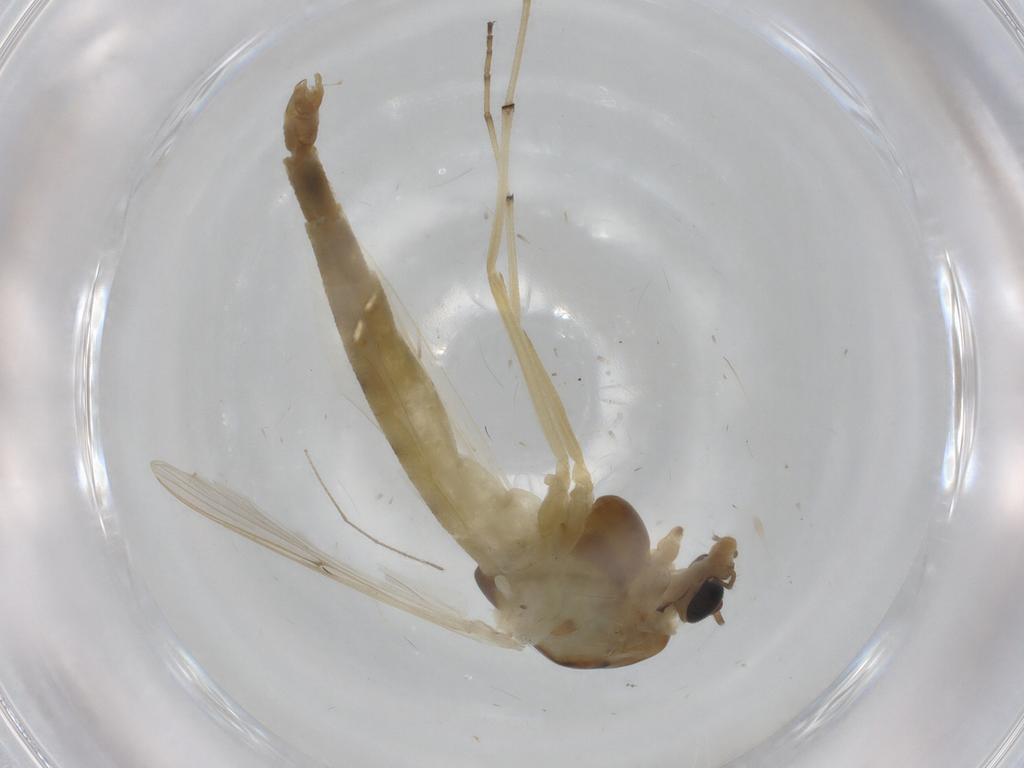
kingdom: Animalia
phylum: Arthropoda
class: Insecta
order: Diptera
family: Chironomidae
